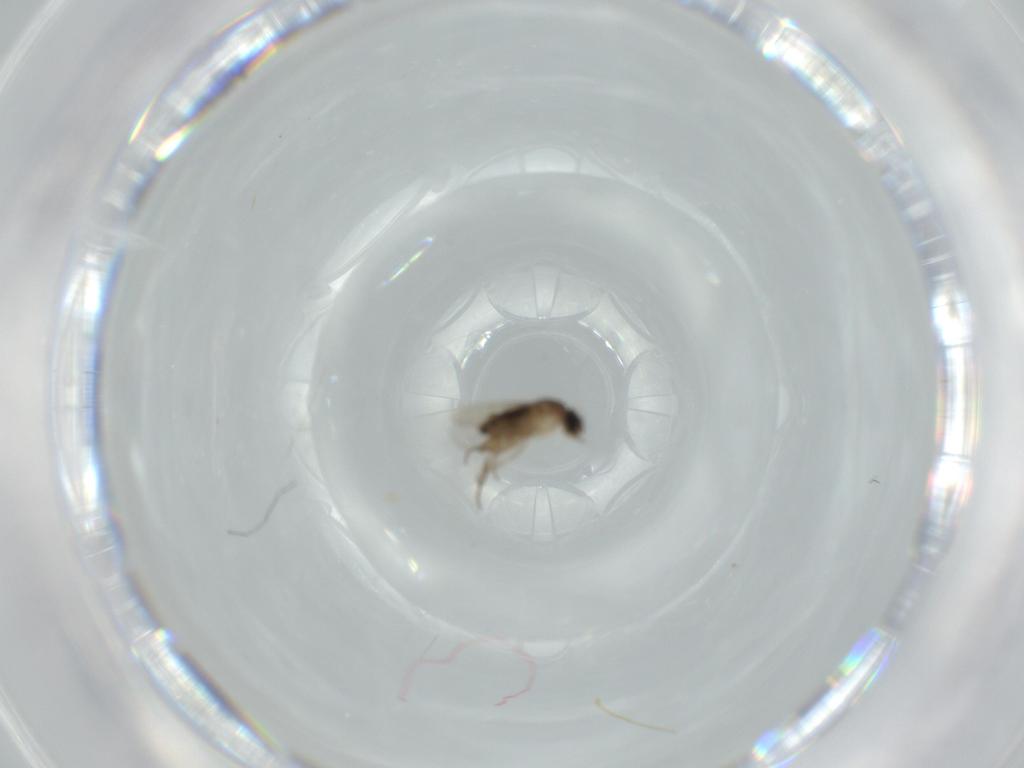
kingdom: Animalia
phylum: Arthropoda
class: Insecta
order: Diptera
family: Phoridae
